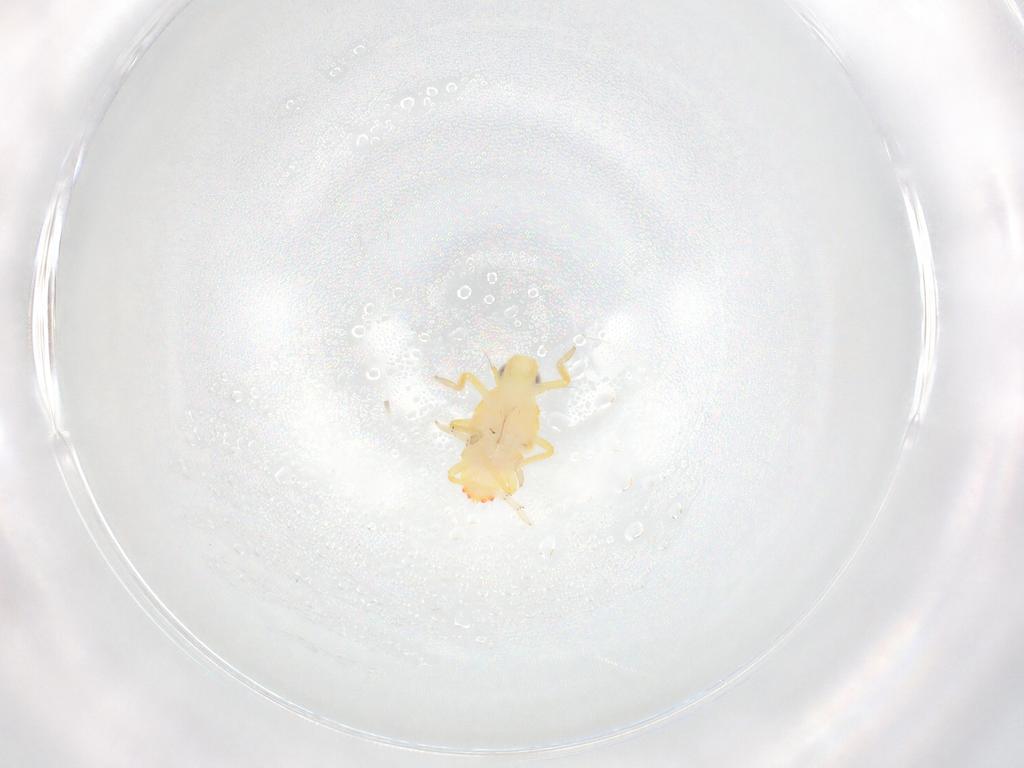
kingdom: Animalia
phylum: Arthropoda
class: Insecta
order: Hemiptera
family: Tropiduchidae
